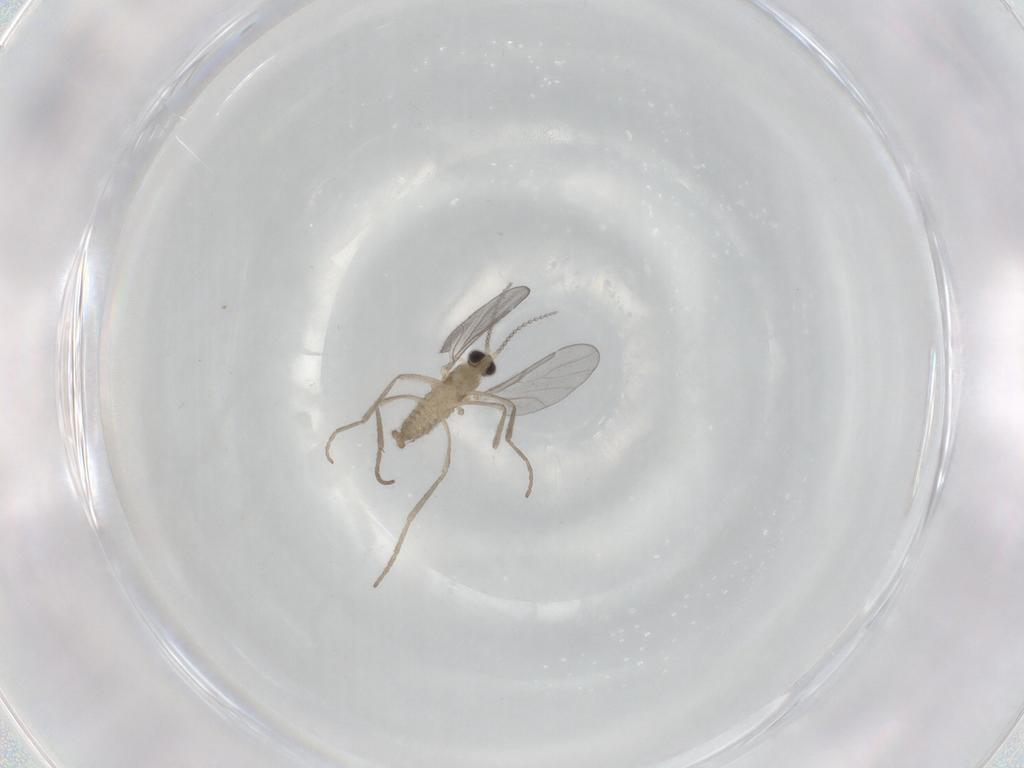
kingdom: Animalia
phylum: Arthropoda
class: Insecta
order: Diptera
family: Cecidomyiidae
